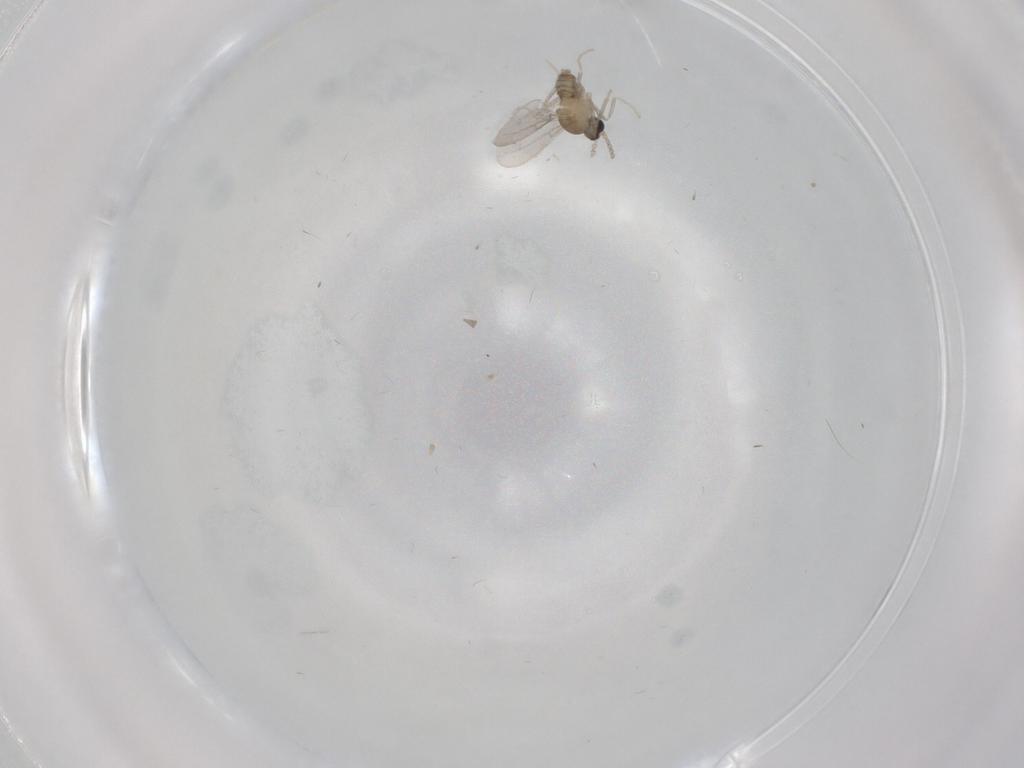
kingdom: Animalia
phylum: Arthropoda
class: Insecta
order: Diptera
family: Cecidomyiidae
